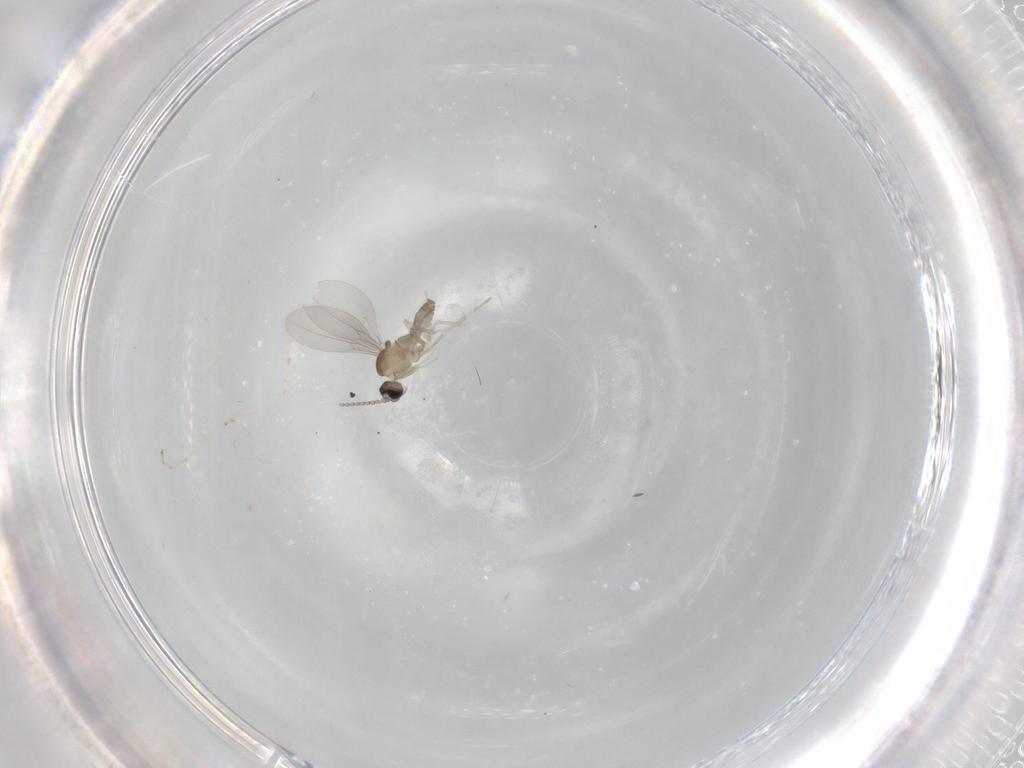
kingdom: Animalia
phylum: Arthropoda
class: Insecta
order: Diptera
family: Cecidomyiidae
